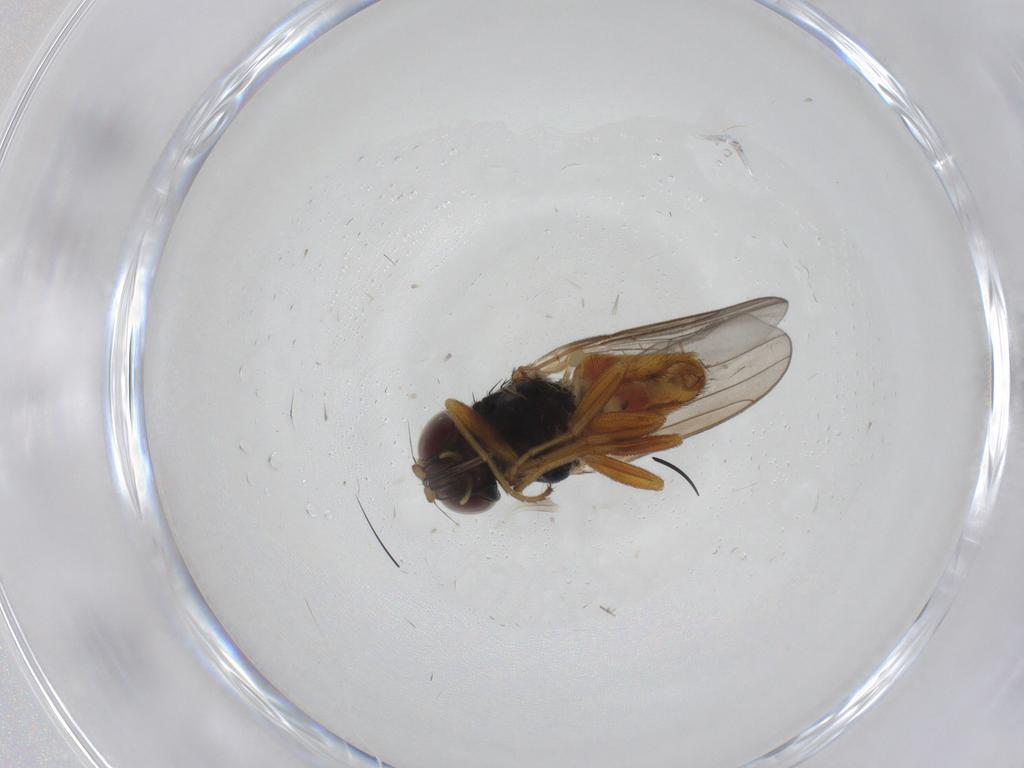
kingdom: Animalia
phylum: Arthropoda
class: Insecta
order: Diptera
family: Chloropidae
